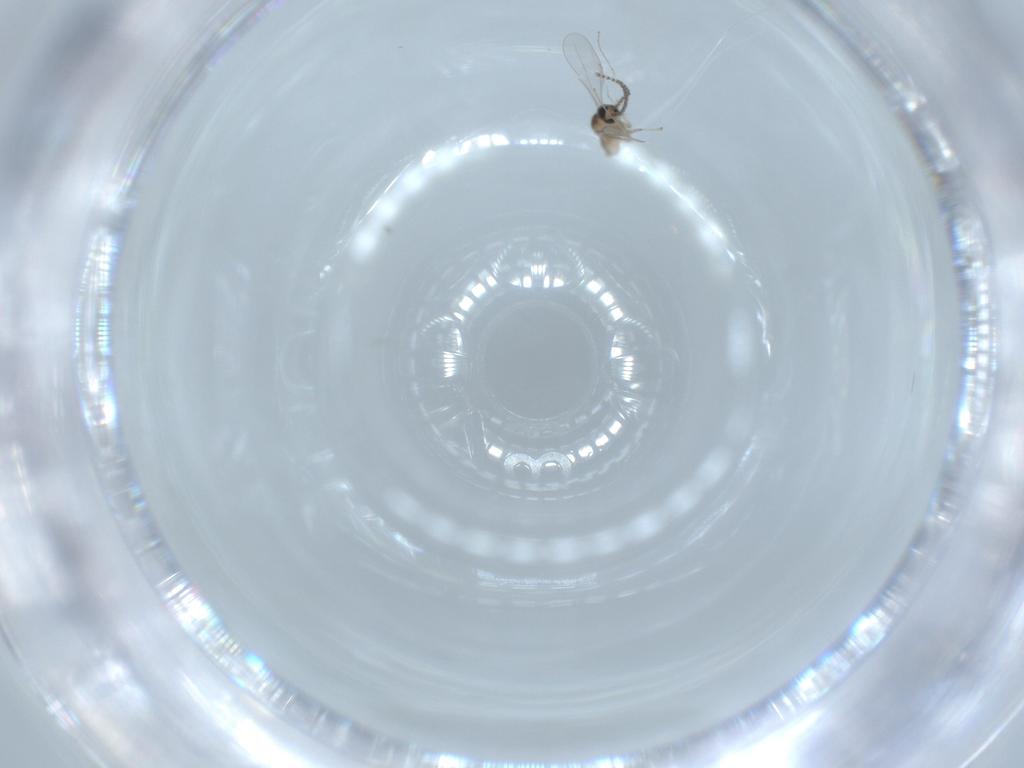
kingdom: Animalia
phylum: Arthropoda
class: Insecta
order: Diptera
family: Cecidomyiidae
